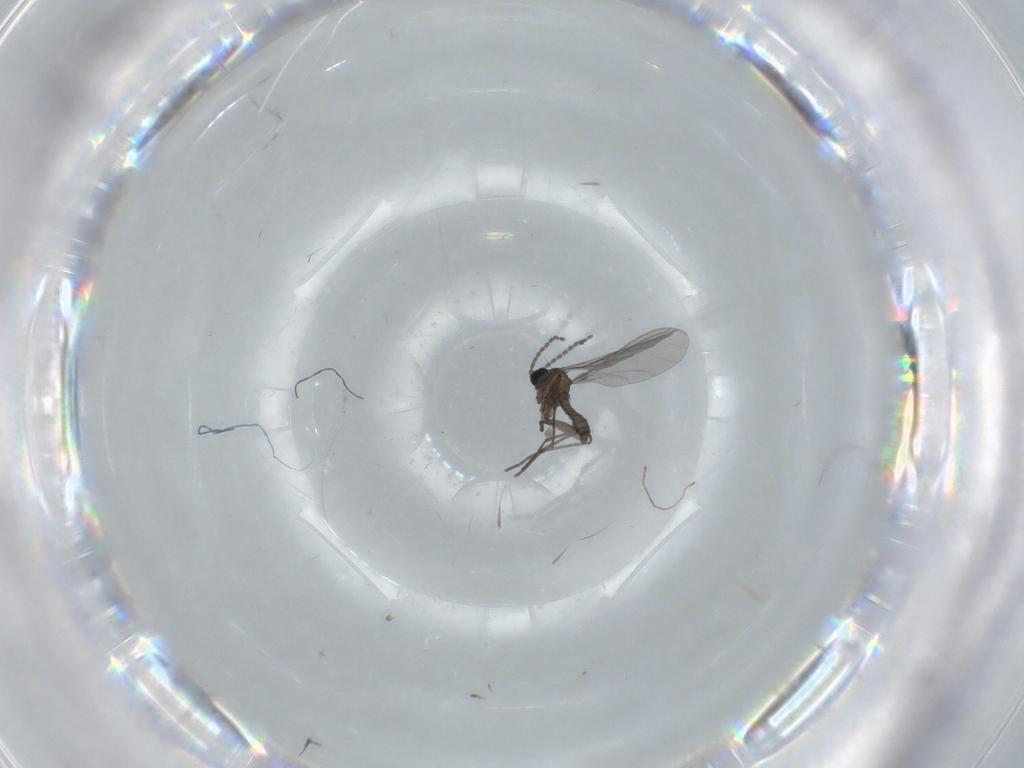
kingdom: Animalia
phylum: Arthropoda
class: Insecta
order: Diptera
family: Sciaridae
